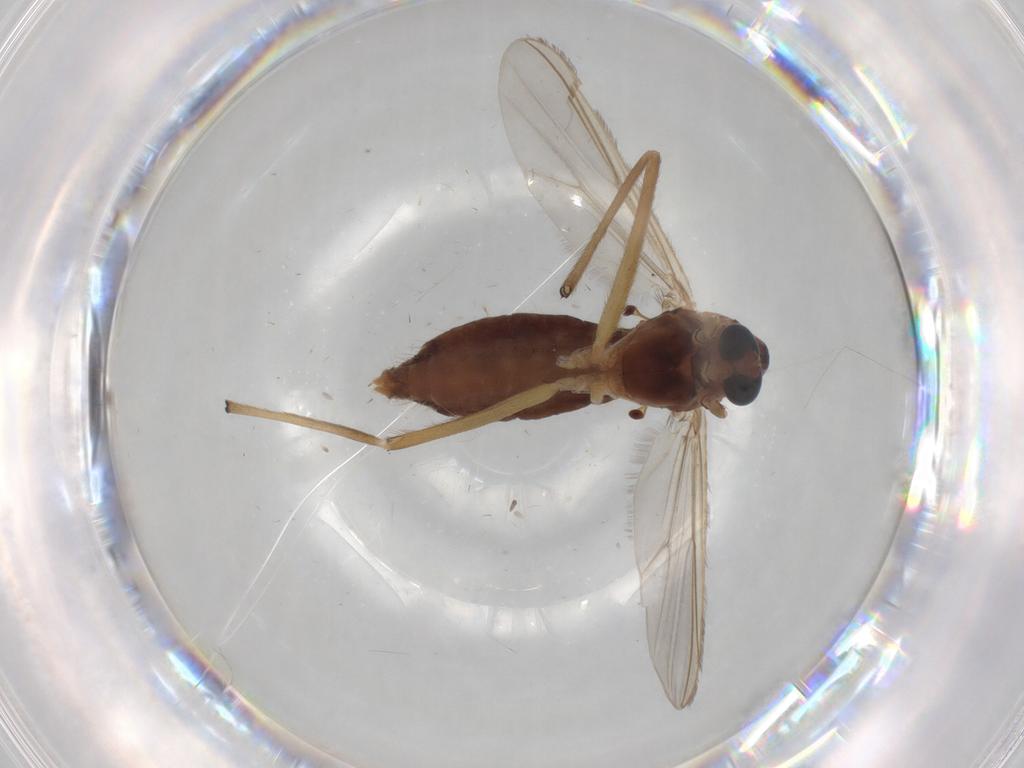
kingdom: Animalia
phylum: Arthropoda
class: Insecta
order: Diptera
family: Chironomidae
